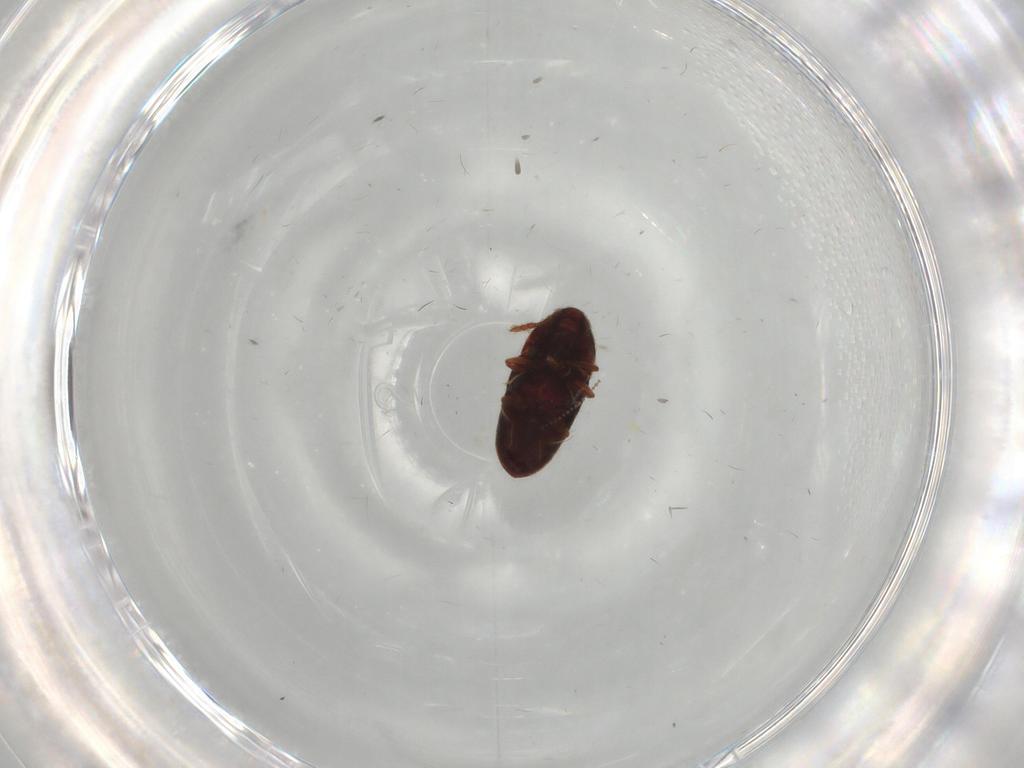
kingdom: Animalia
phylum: Arthropoda
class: Insecta
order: Coleoptera
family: Throscidae
